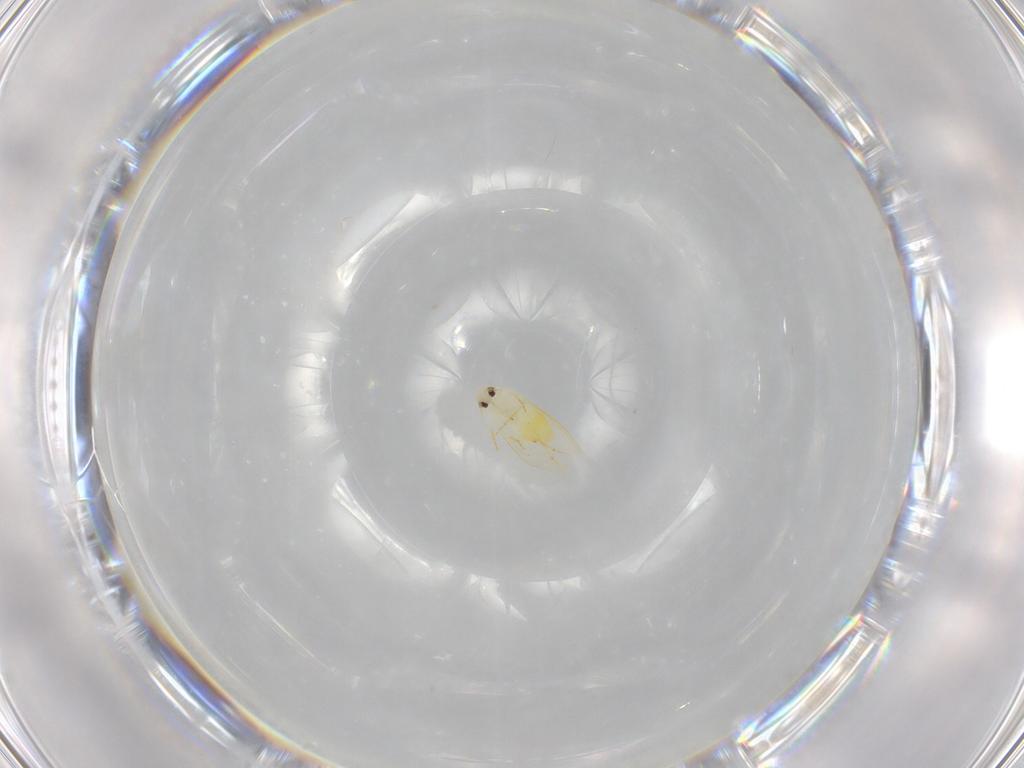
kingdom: Animalia
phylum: Arthropoda
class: Insecta
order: Hemiptera
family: Aleyrodidae
